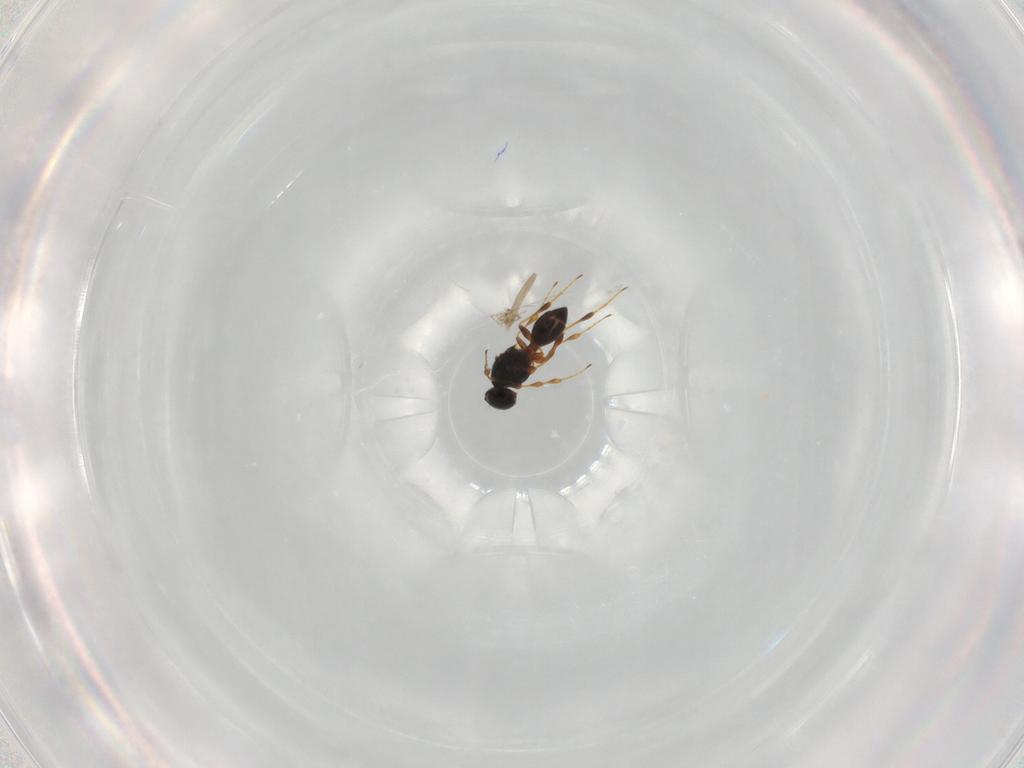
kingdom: Animalia
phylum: Arthropoda
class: Insecta
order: Hymenoptera
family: Platygastridae
